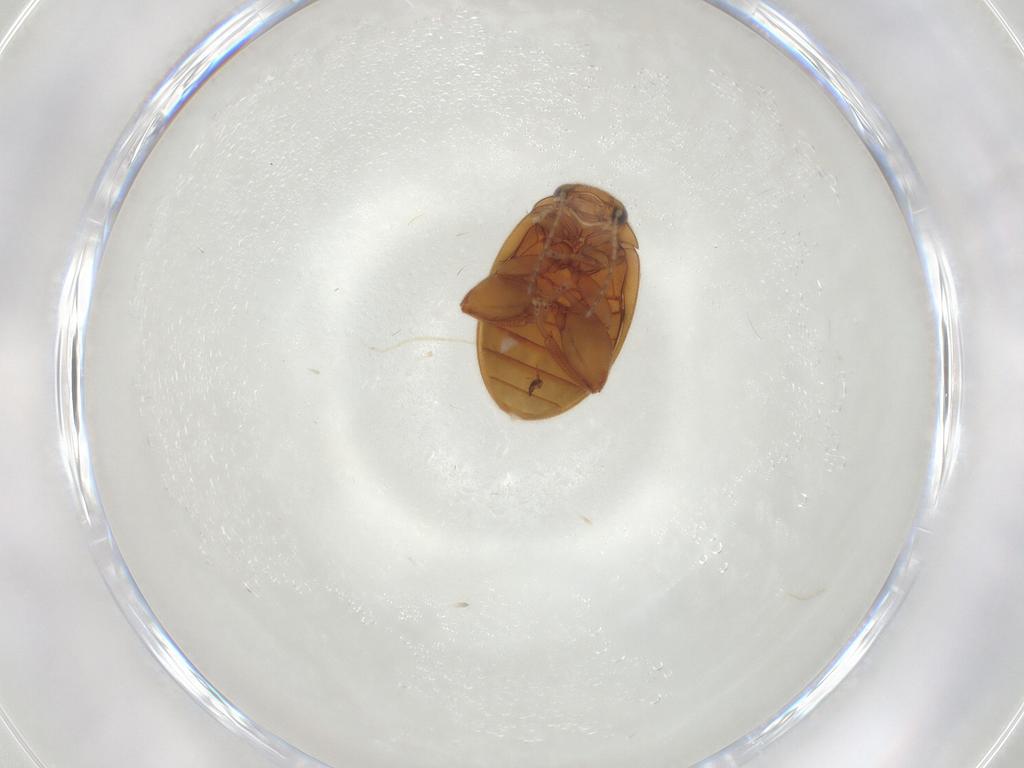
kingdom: Animalia
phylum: Arthropoda
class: Insecta
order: Coleoptera
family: Scirtidae
